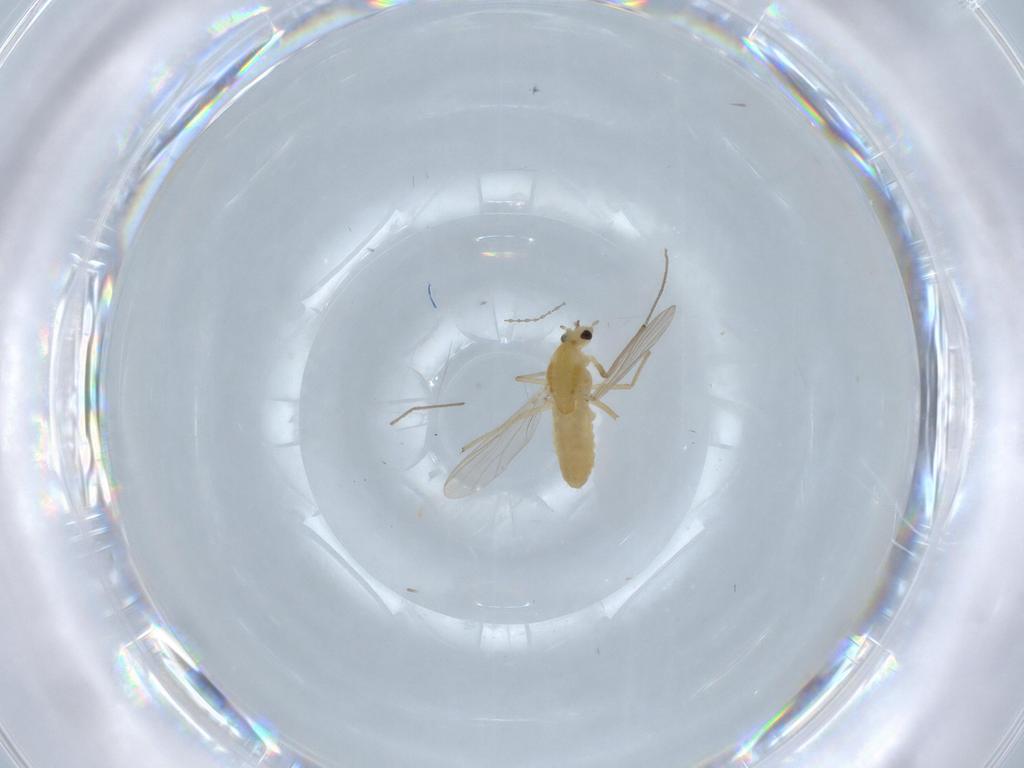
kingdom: Animalia
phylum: Arthropoda
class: Insecta
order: Diptera
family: Chironomidae
